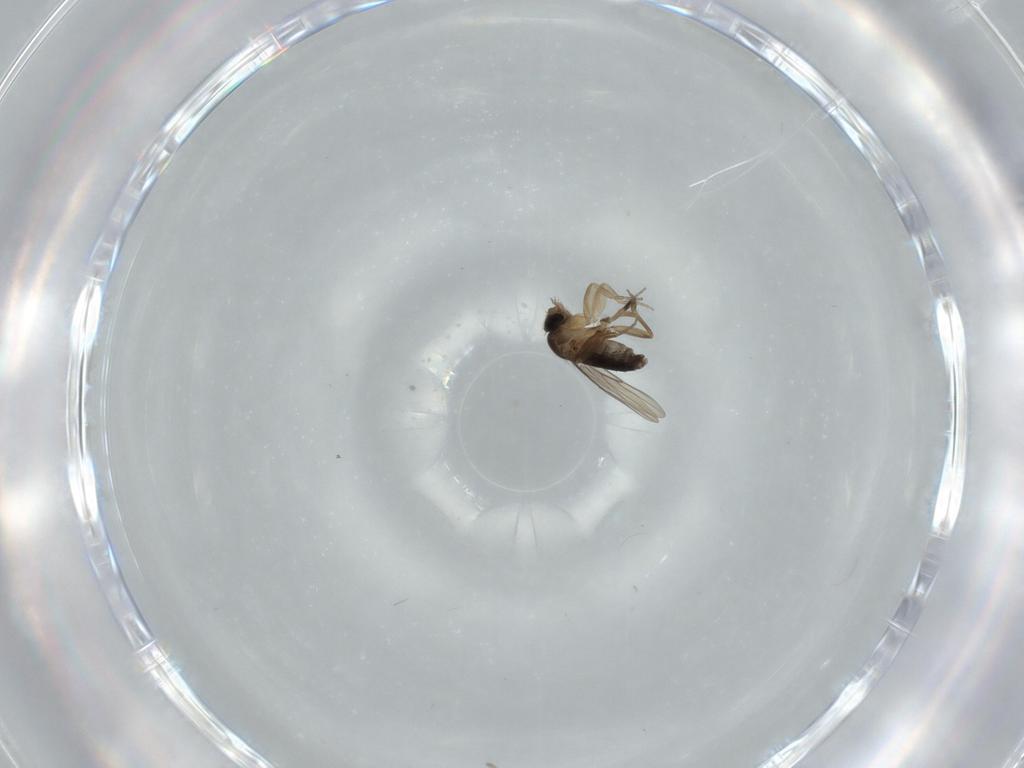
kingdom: Animalia
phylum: Arthropoda
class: Insecta
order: Diptera
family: Phoridae
